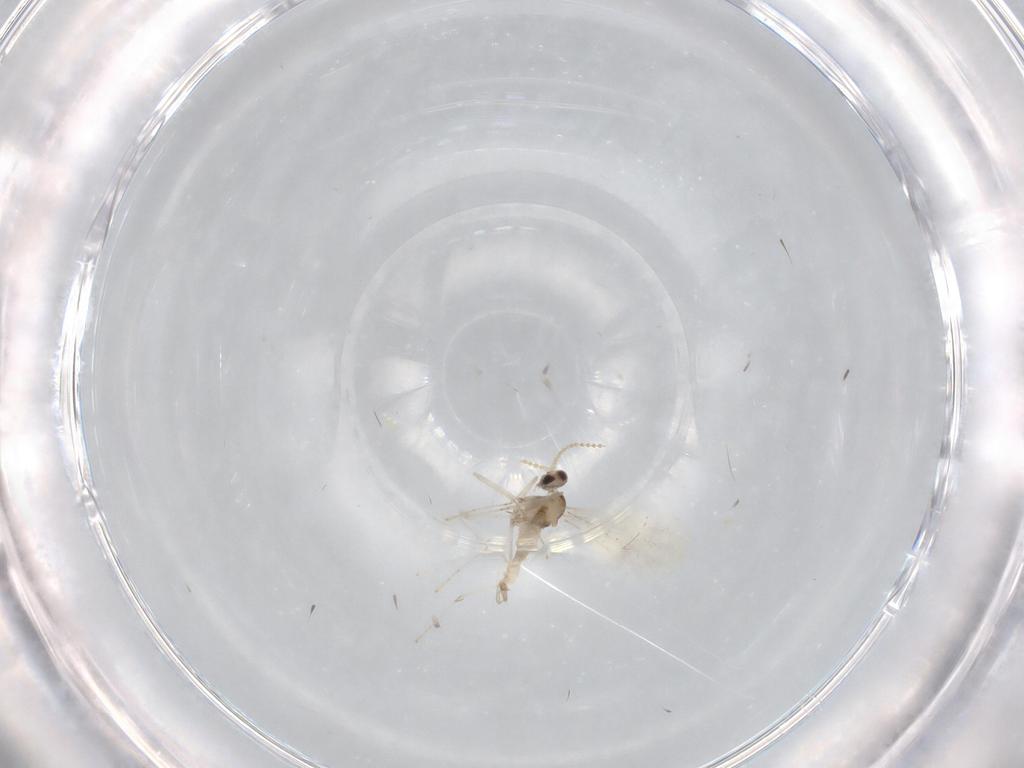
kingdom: Animalia
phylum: Arthropoda
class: Insecta
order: Diptera
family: Cecidomyiidae
